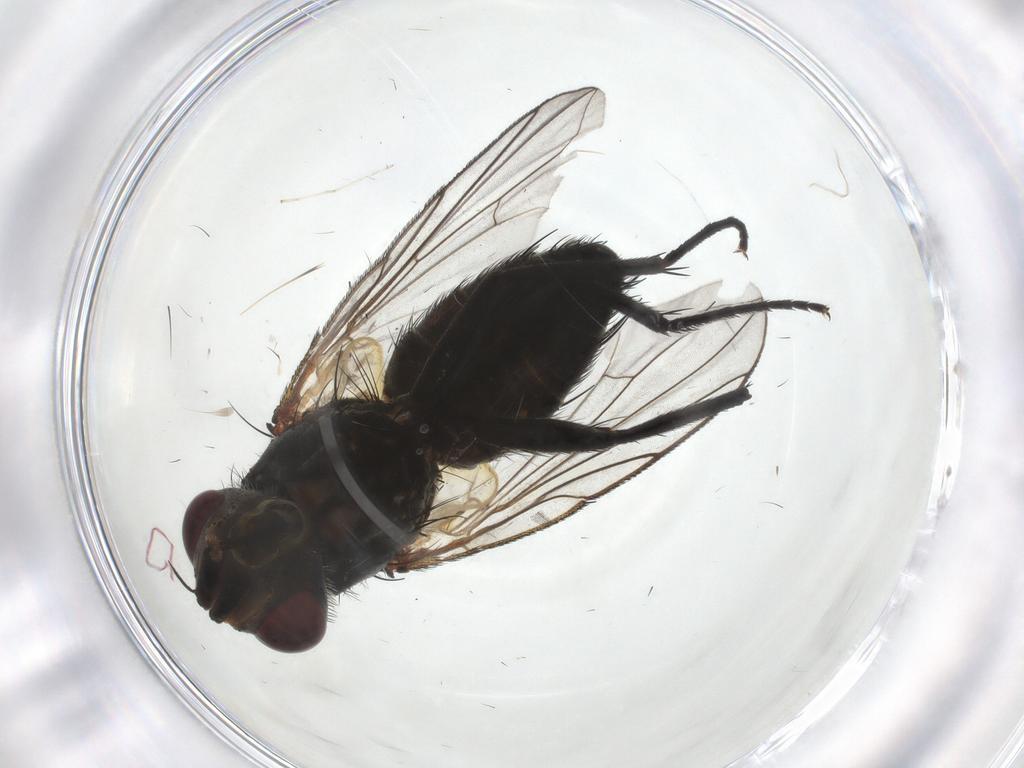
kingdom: Animalia
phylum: Arthropoda
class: Insecta
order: Diptera
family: Tachinidae
